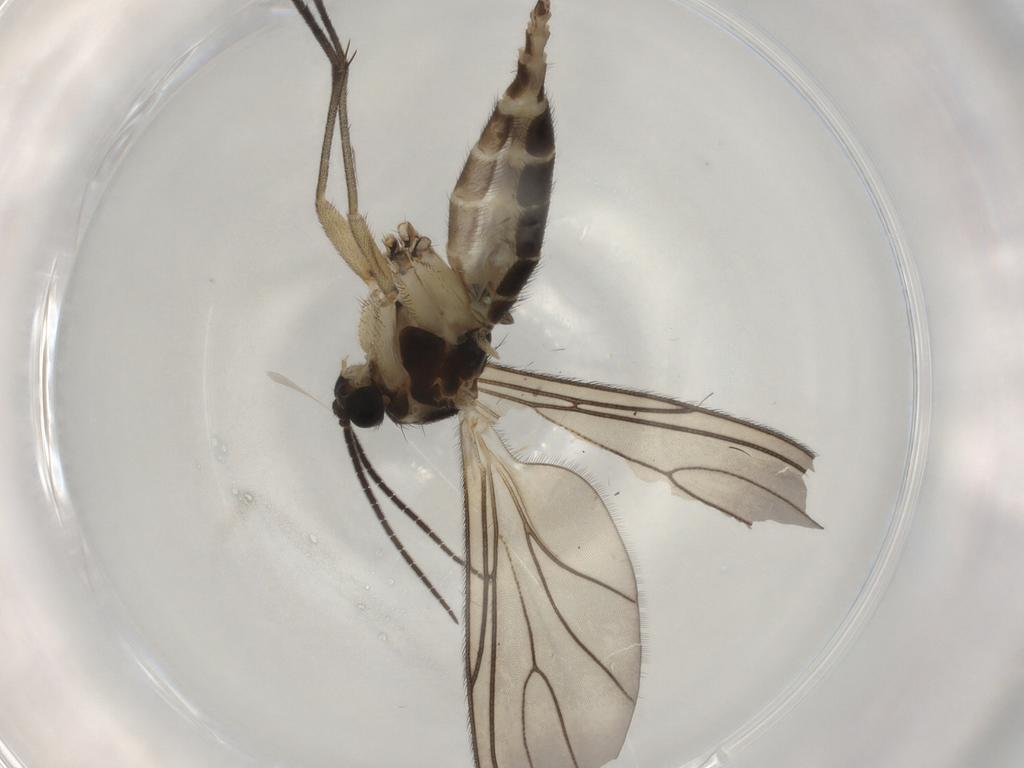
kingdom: Animalia
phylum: Arthropoda
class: Insecta
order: Diptera
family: Sciaridae
